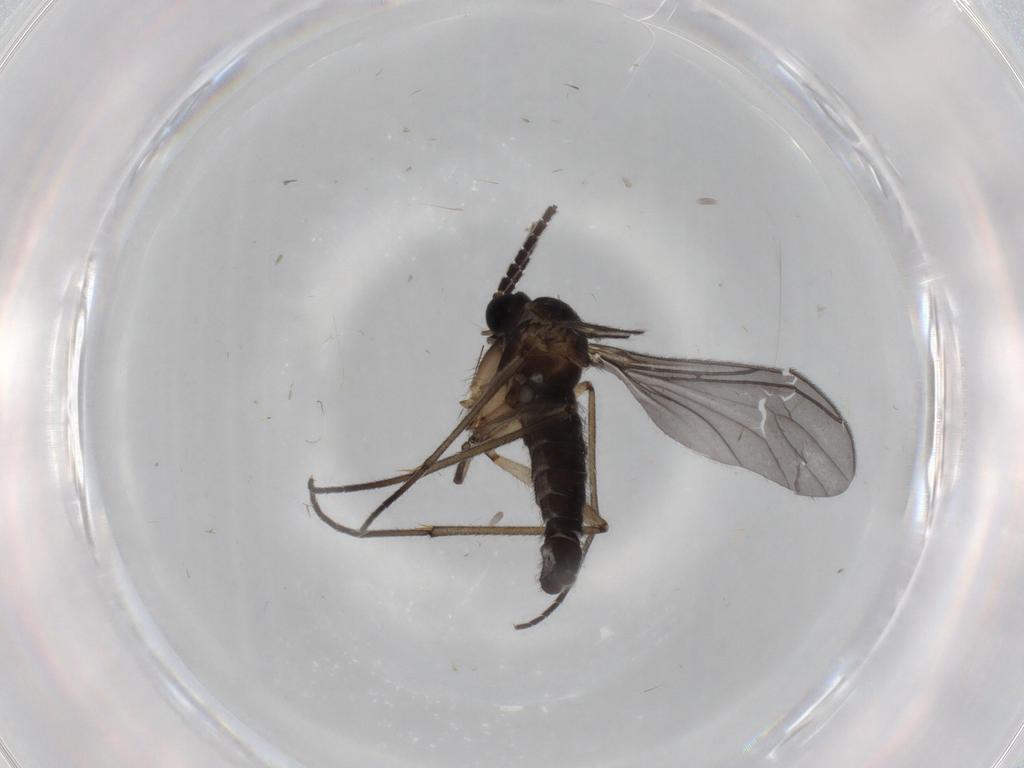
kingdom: Animalia
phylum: Arthropoda
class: Insecta
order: Diptera
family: Sciaridae
